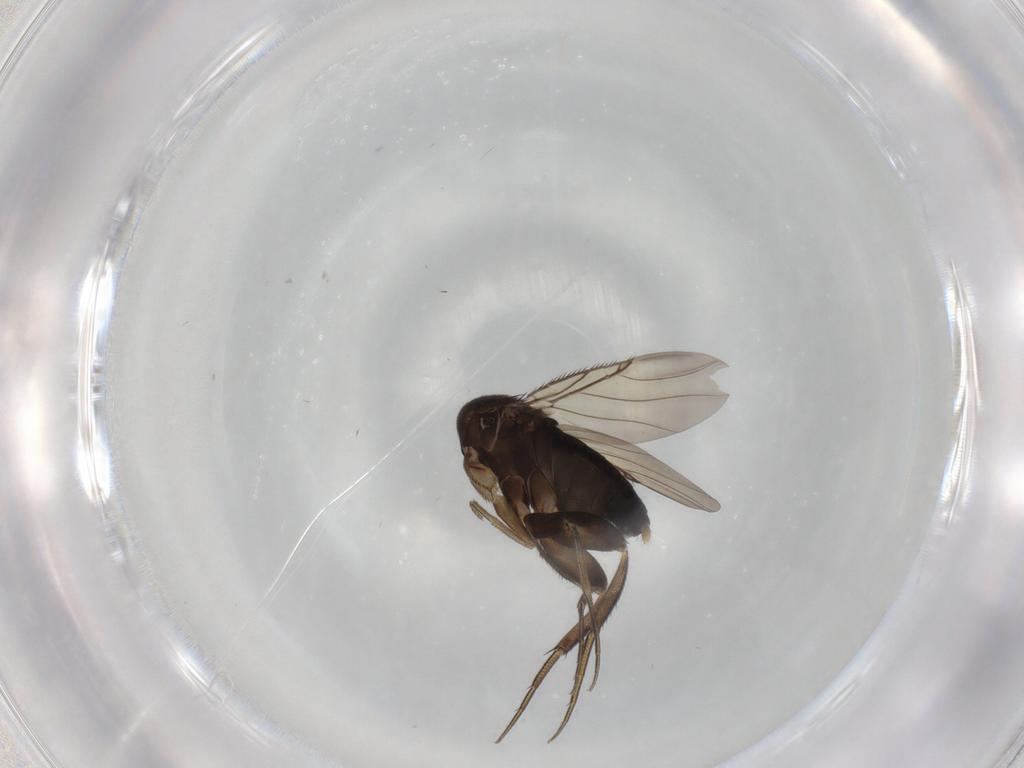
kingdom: Animalia
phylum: Arthropoda
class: Insecta
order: Diptera
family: Phoridae
